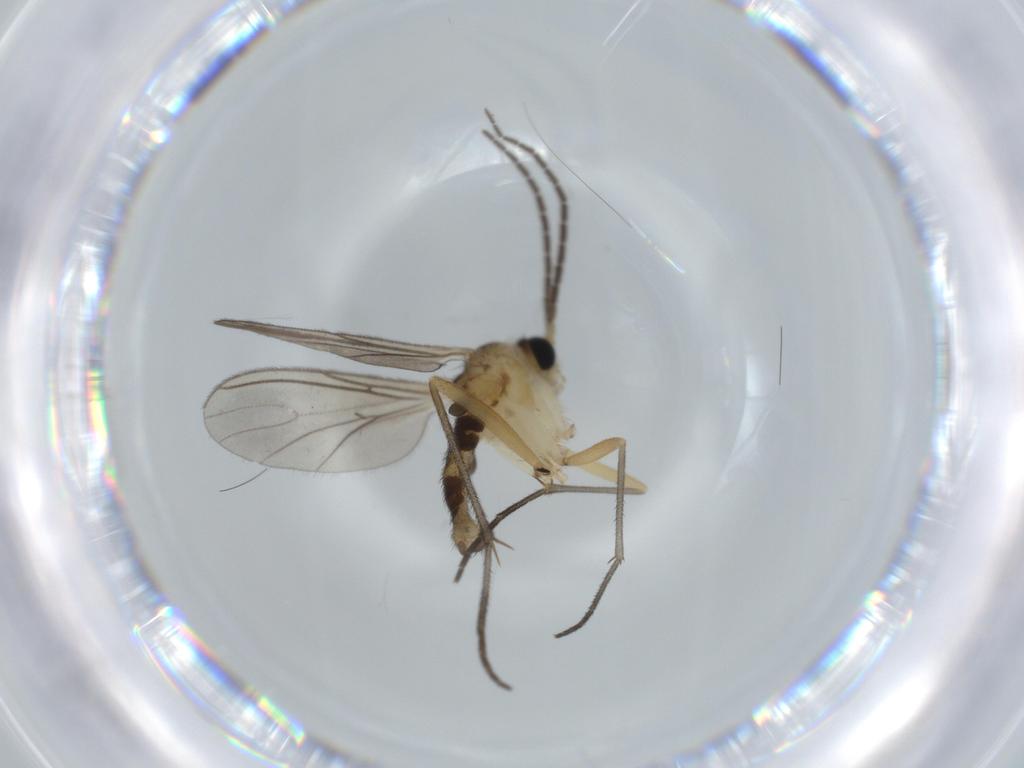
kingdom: Animalia
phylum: Arthropoda
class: Insecta
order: Diptera
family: Sciaridae
